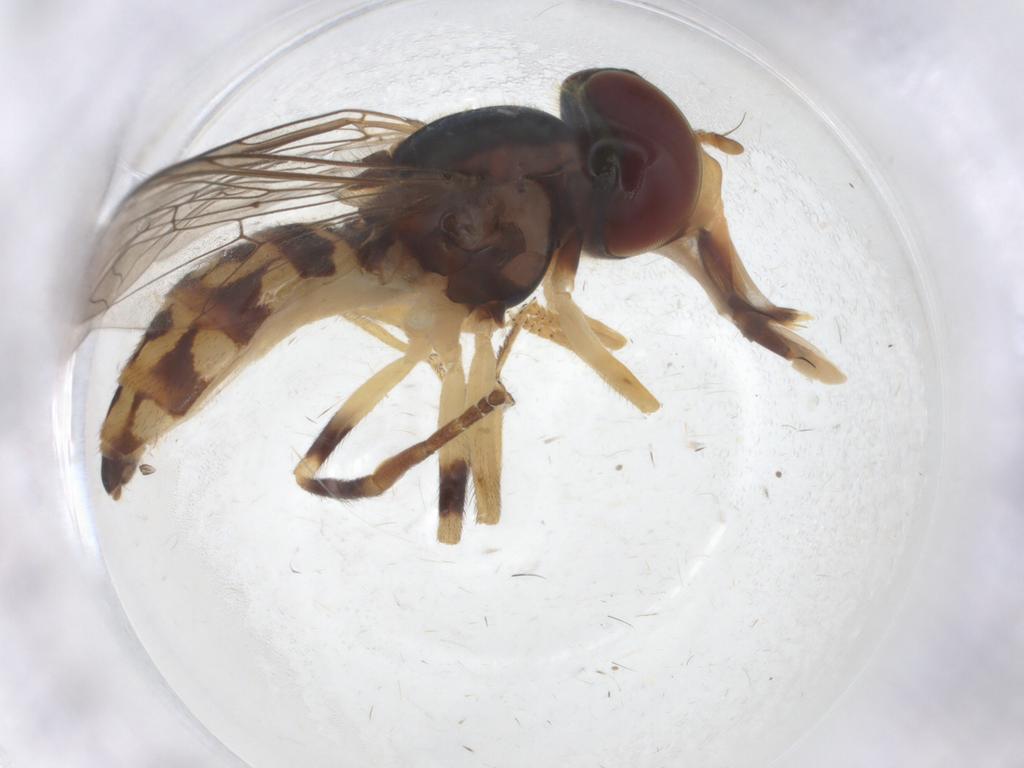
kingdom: Animalia
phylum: Arthropoda
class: Insecta
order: Diptera
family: Syrphidae
